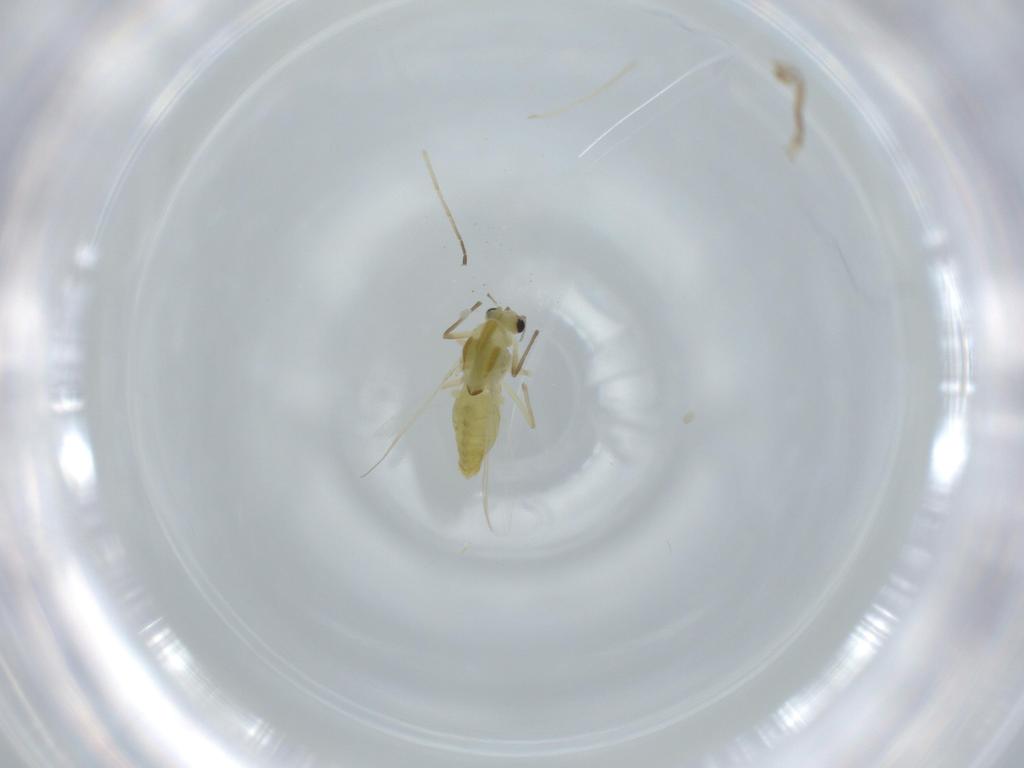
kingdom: Animalia
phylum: Arthropoda
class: Insecta
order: Diptera
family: Chironomidae
